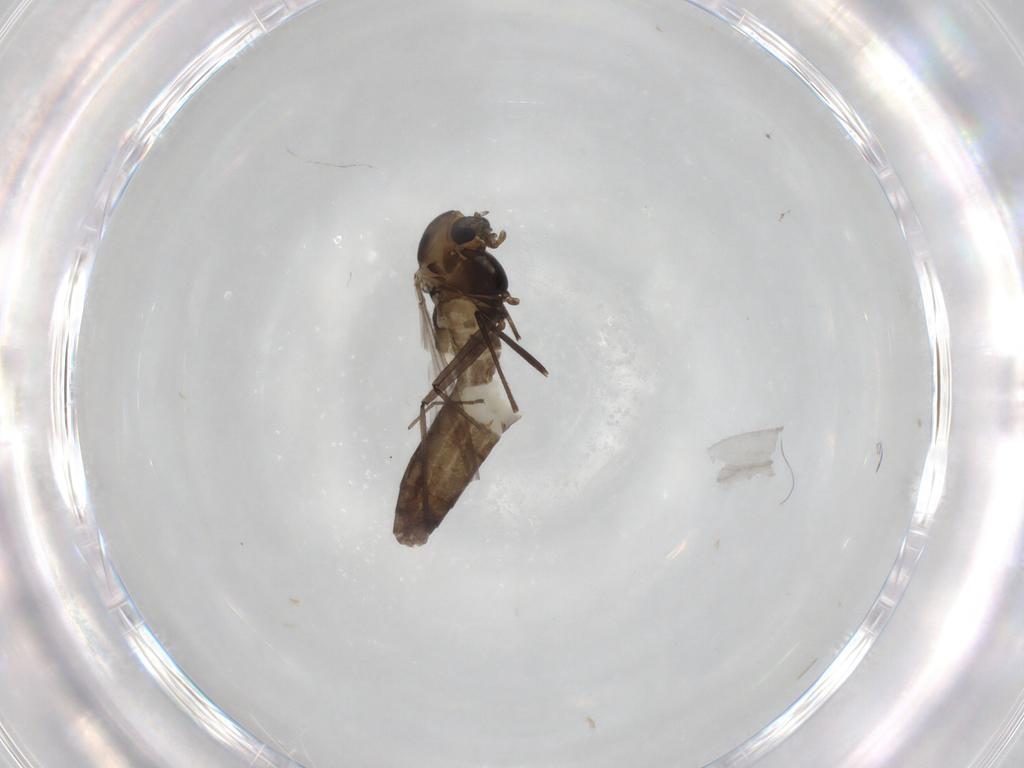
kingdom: Animalia
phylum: Arthropoda
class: Insecta
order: Diptera
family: Chironomidae
